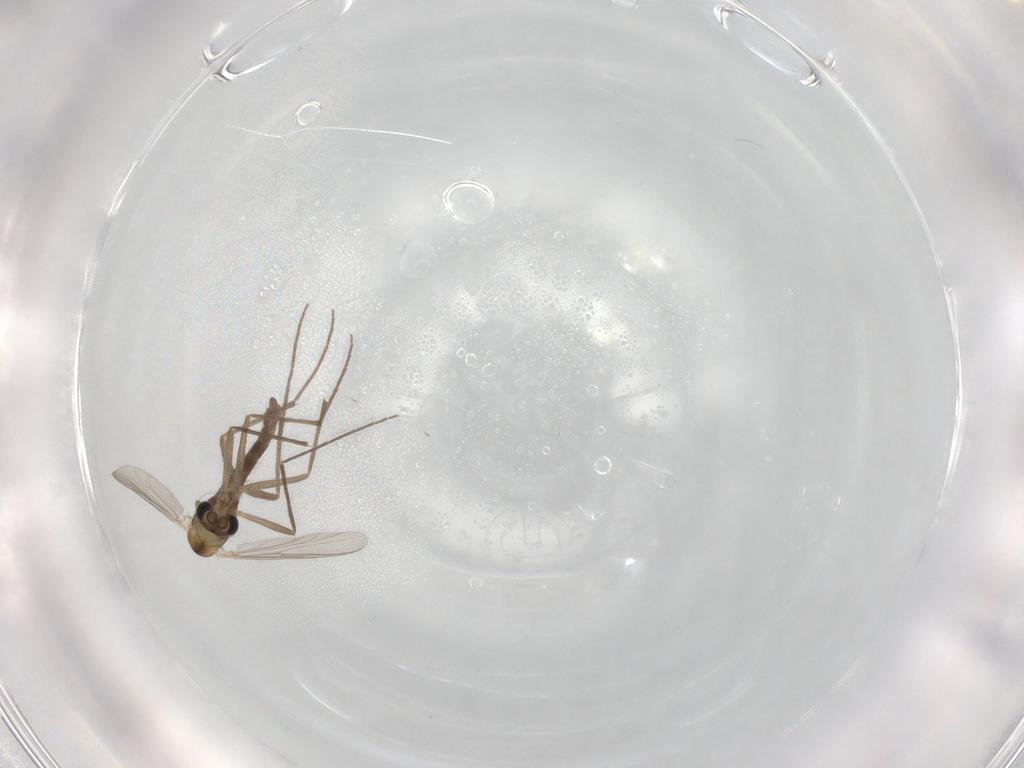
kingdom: Animalia
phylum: Arthropoda
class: Insecta
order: Diptera
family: Chironomidae
